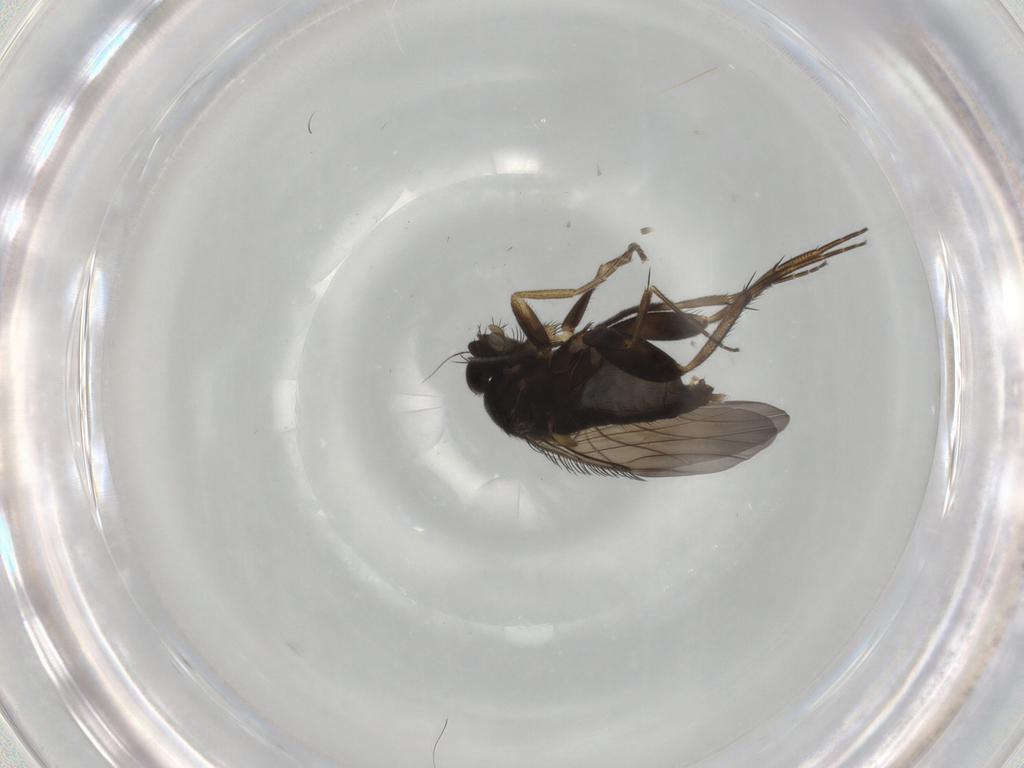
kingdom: Animalia
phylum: Arthropoda
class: Insecta
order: Diptera
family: Phoridae
